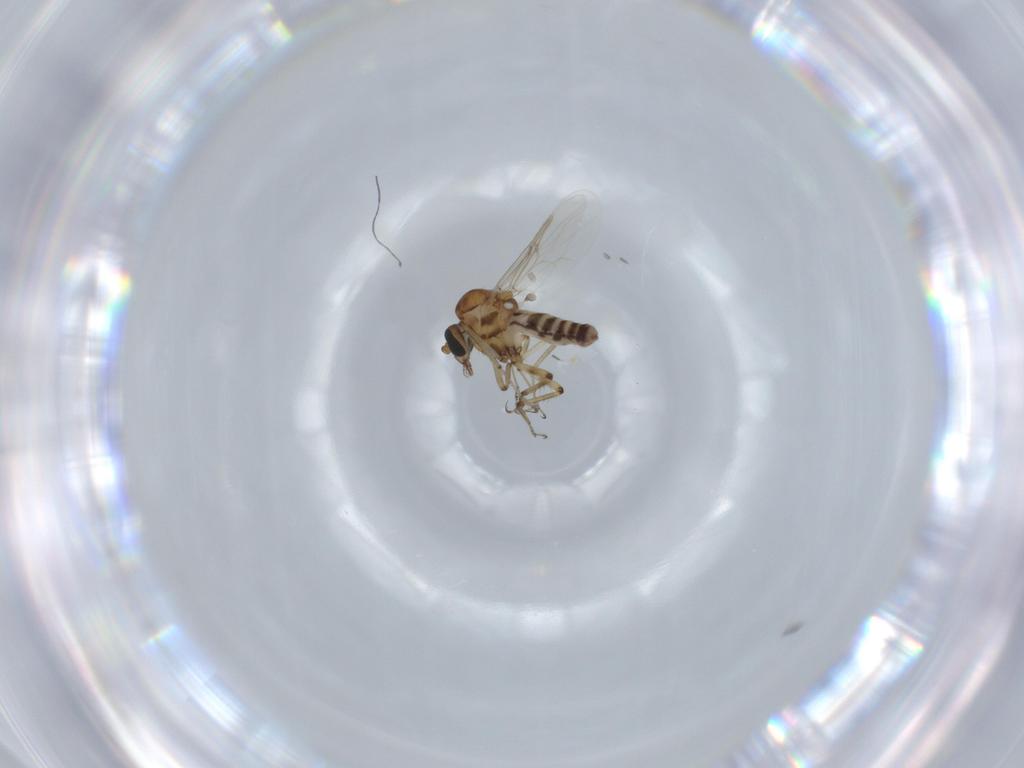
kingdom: Animalia
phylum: Arthropoda
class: Insecta
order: Diptera
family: Ceratopogonidae
